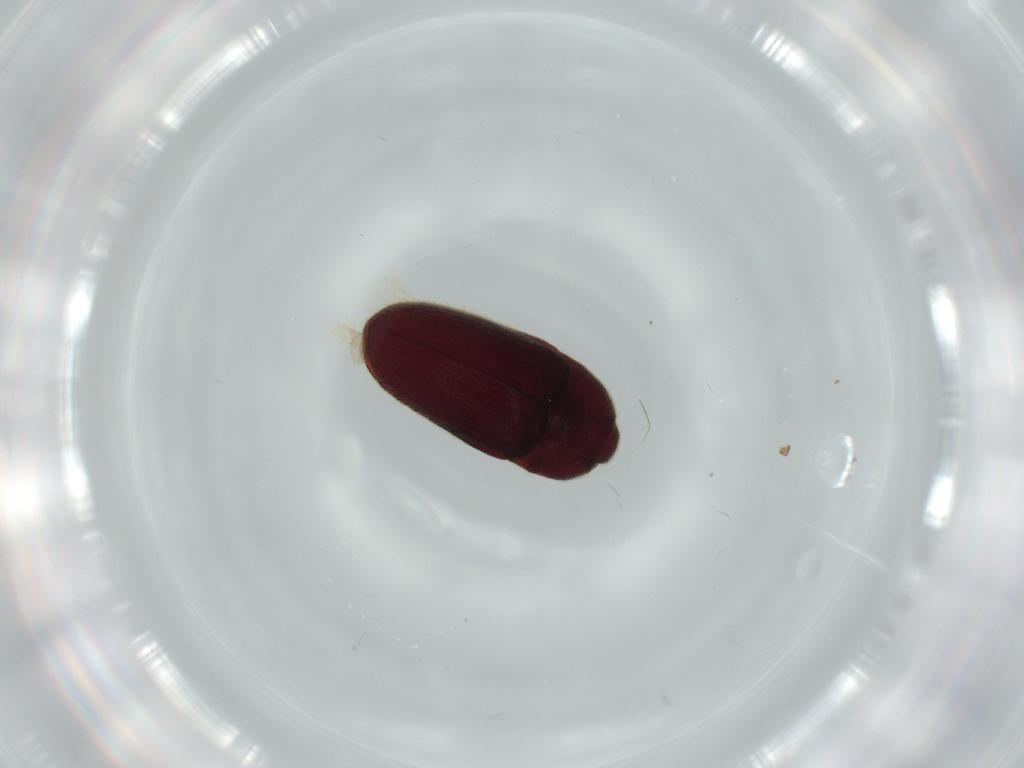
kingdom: Animalia
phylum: Arthropoda
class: Insecta
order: Coleoptera
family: Throscidae
